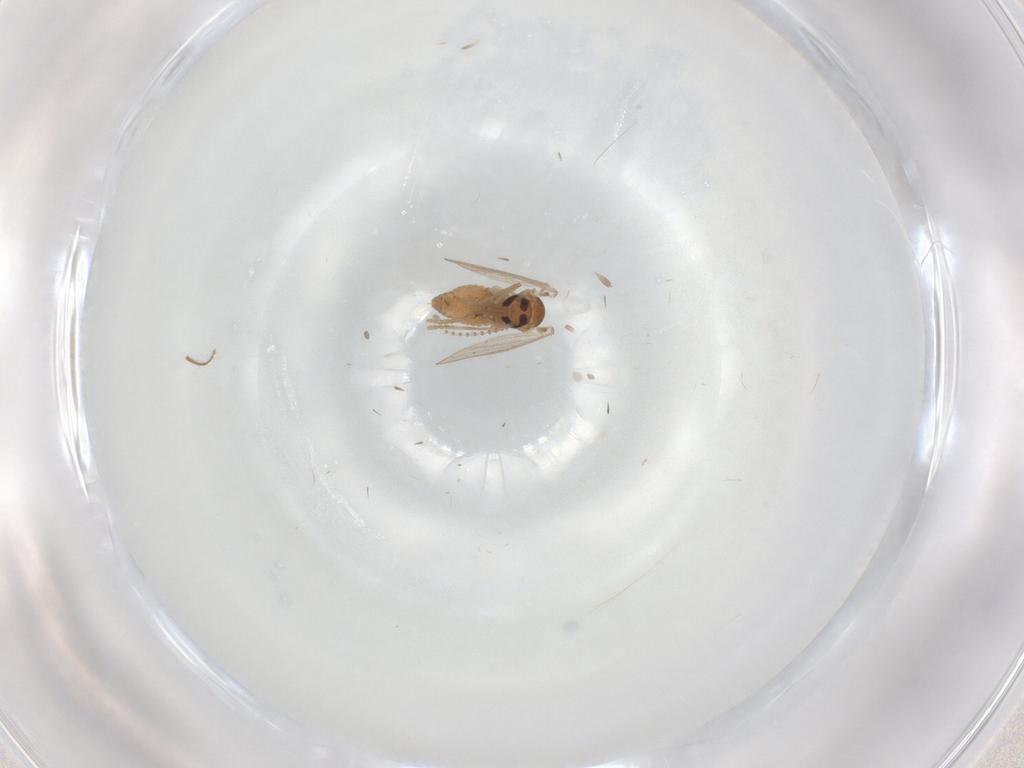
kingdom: Animalia
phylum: Arthropoda
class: Insecta
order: Diptera
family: Psychodidae
